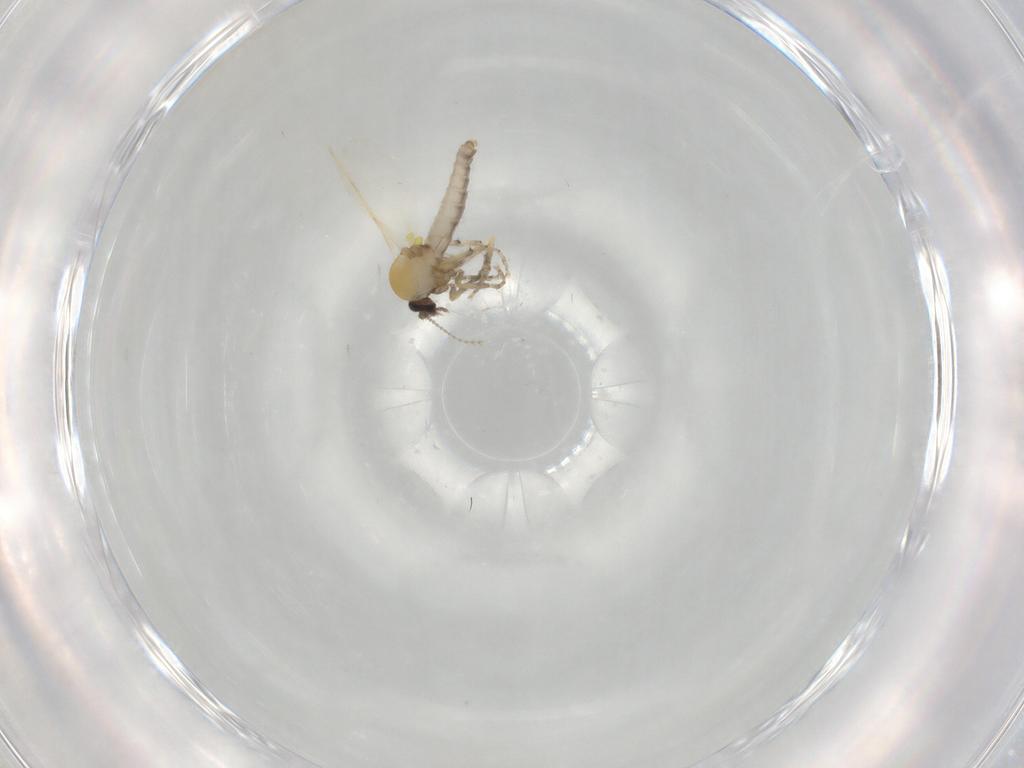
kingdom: Animalia
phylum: Arthropoda
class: Insecta
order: Diptera
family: Ceratopogonidae
